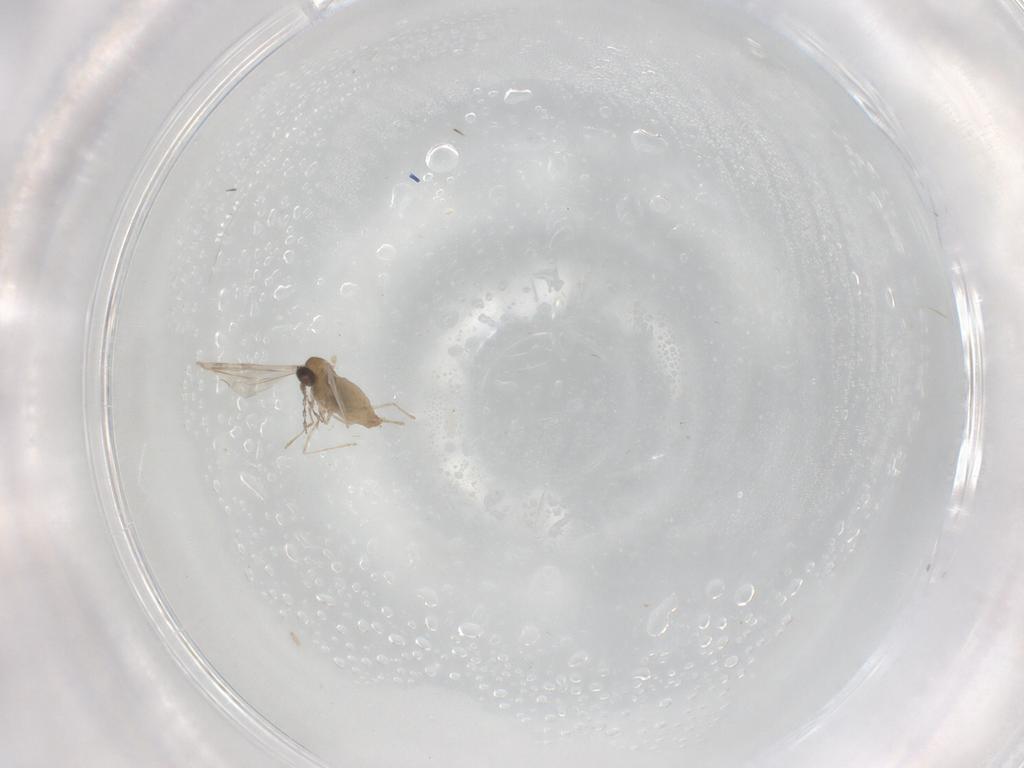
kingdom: Animalia
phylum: Arthropoda
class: Insecta
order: Diptera
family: Cecidomyiidae
